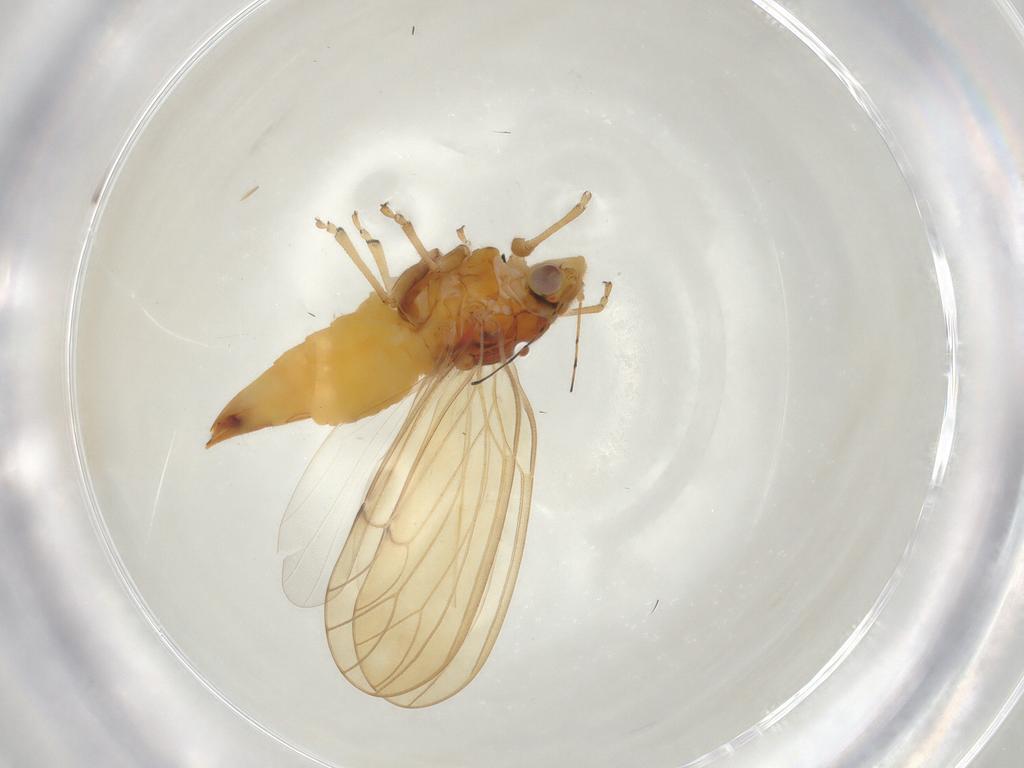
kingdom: Animalia
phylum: Arthropoda
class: Insecta
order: Hemiptera
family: Psylloidea_incertae_sedis
